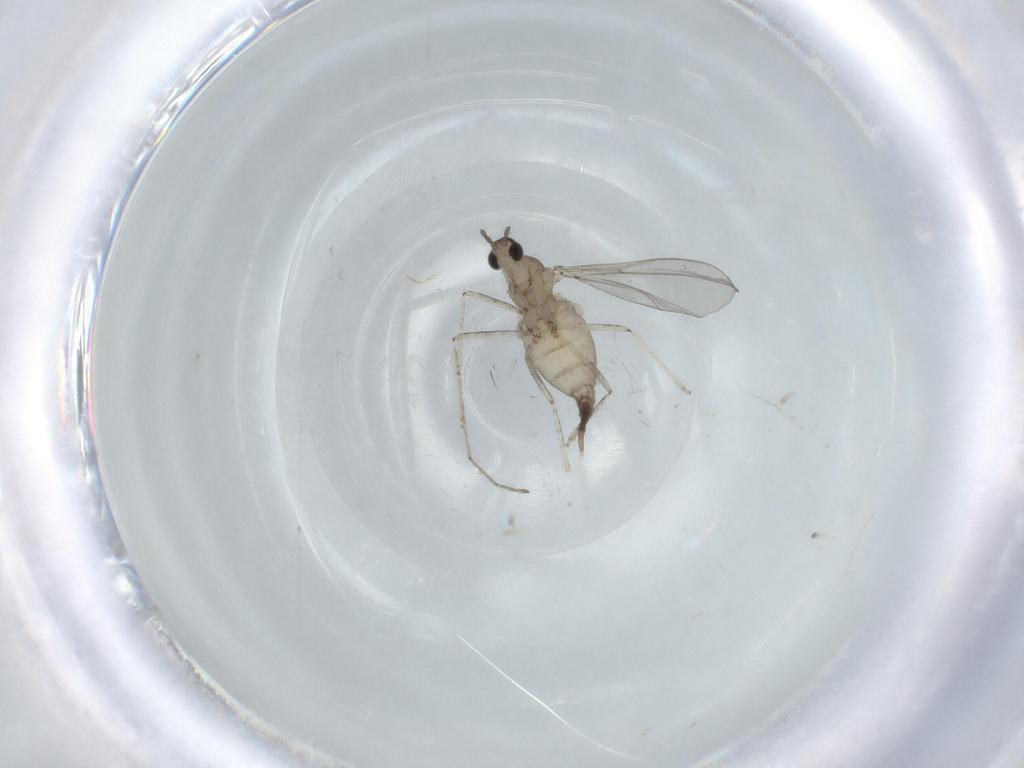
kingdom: Animalia
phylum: Arthropoda
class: Insecta
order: Diptera
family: Cecidomyiidae
